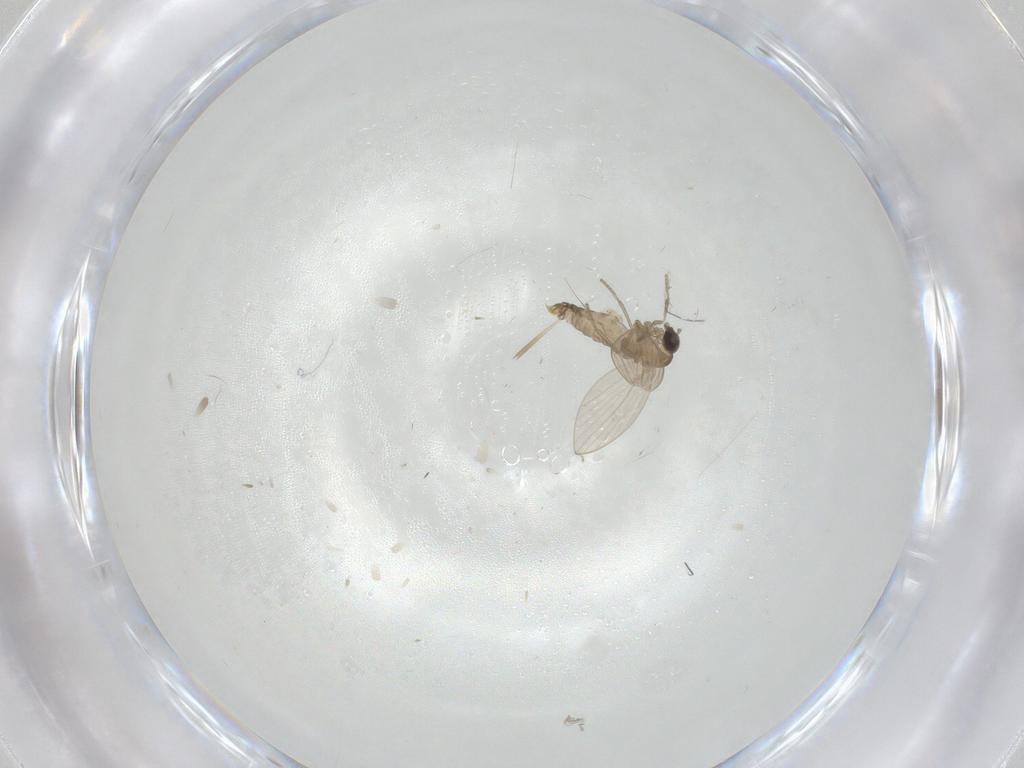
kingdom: Animalia
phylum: Arthropoda
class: Insecta
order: Diptera
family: Psychodidae
